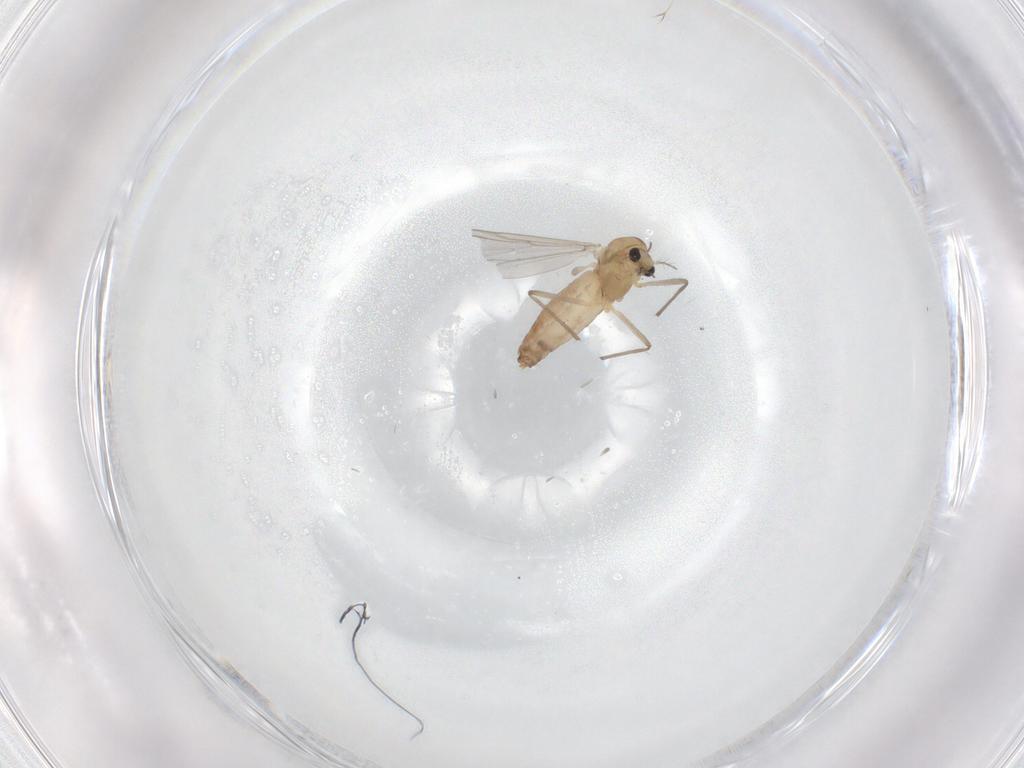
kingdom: Animalia
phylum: Arthropoda
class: Insecta
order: Diptera
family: Chironomidae
